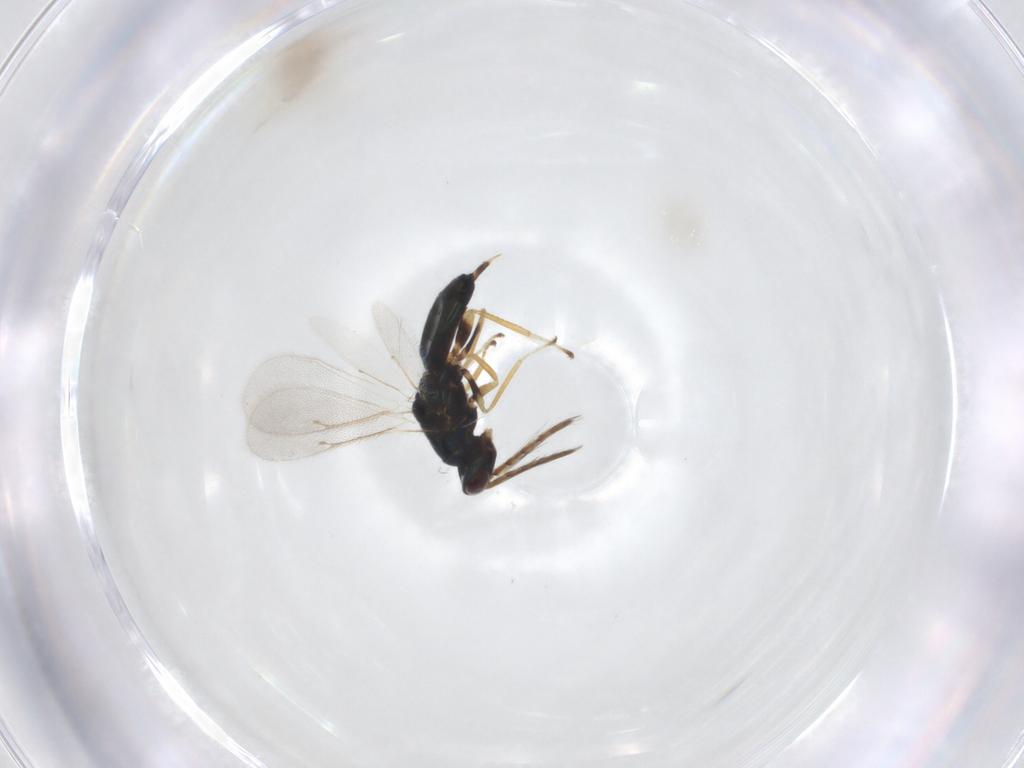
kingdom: Animalia
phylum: Arthropoda
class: Insecta
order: Hymenoptera
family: Eulophidae
